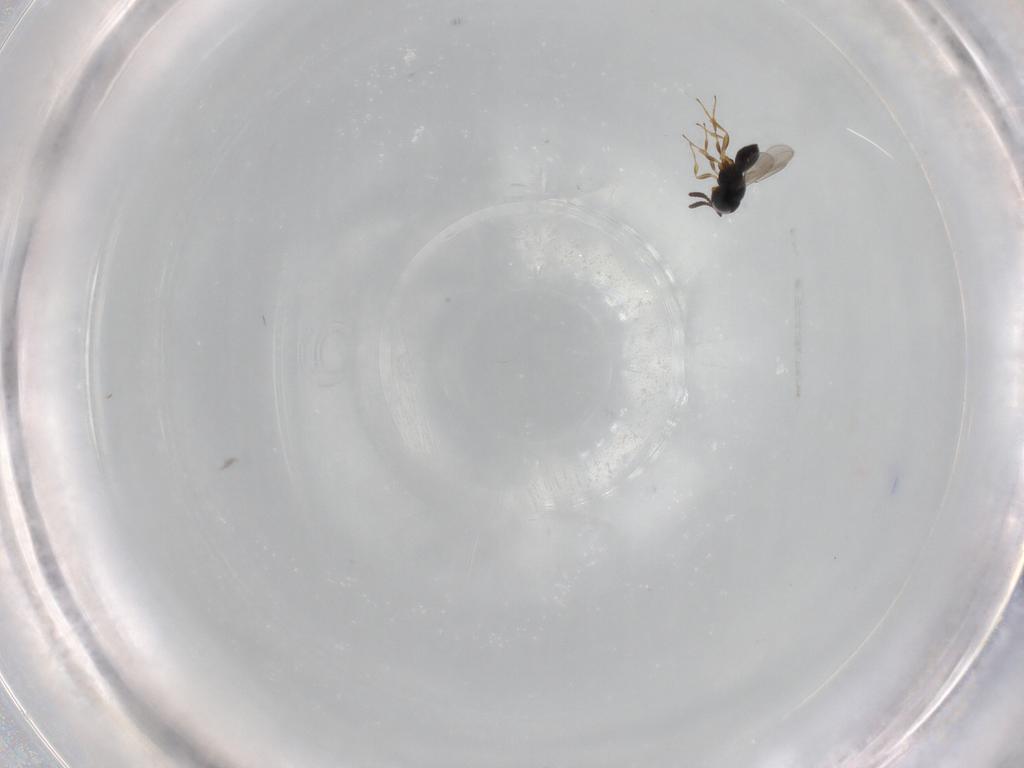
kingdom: Animalia
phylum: Arthropoda
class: Insecta
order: Hymenoptera
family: Scelionidae
